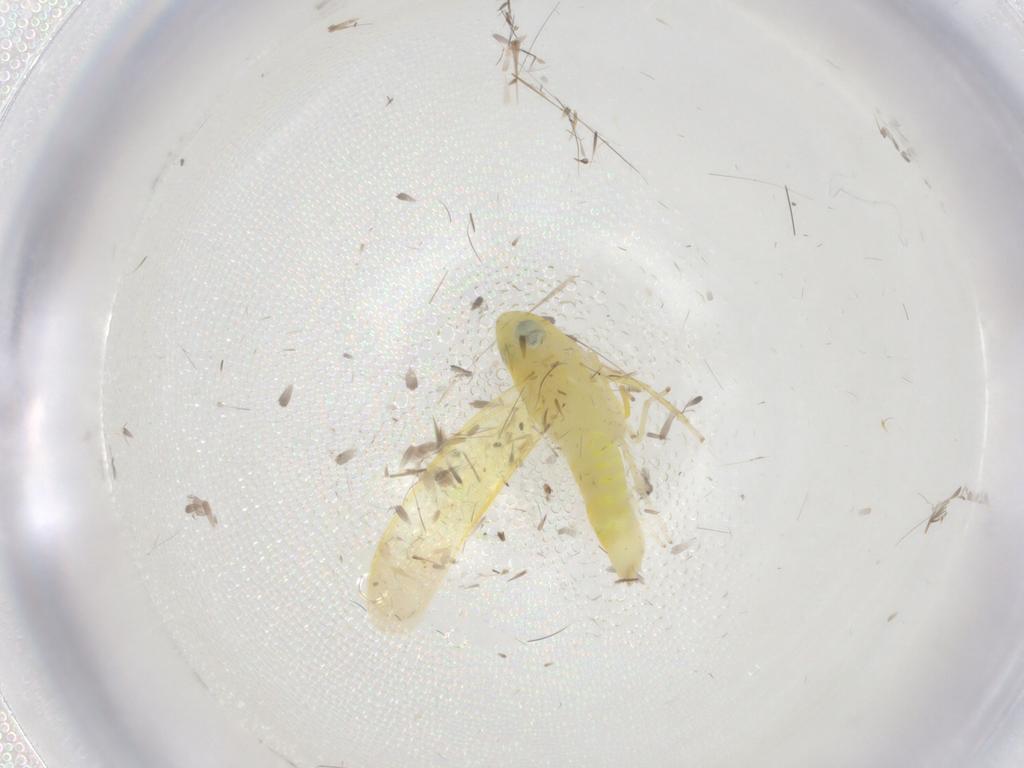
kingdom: Animalia
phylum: Arthropoda
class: Insecta
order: Hemiptera
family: Cicadellidae
